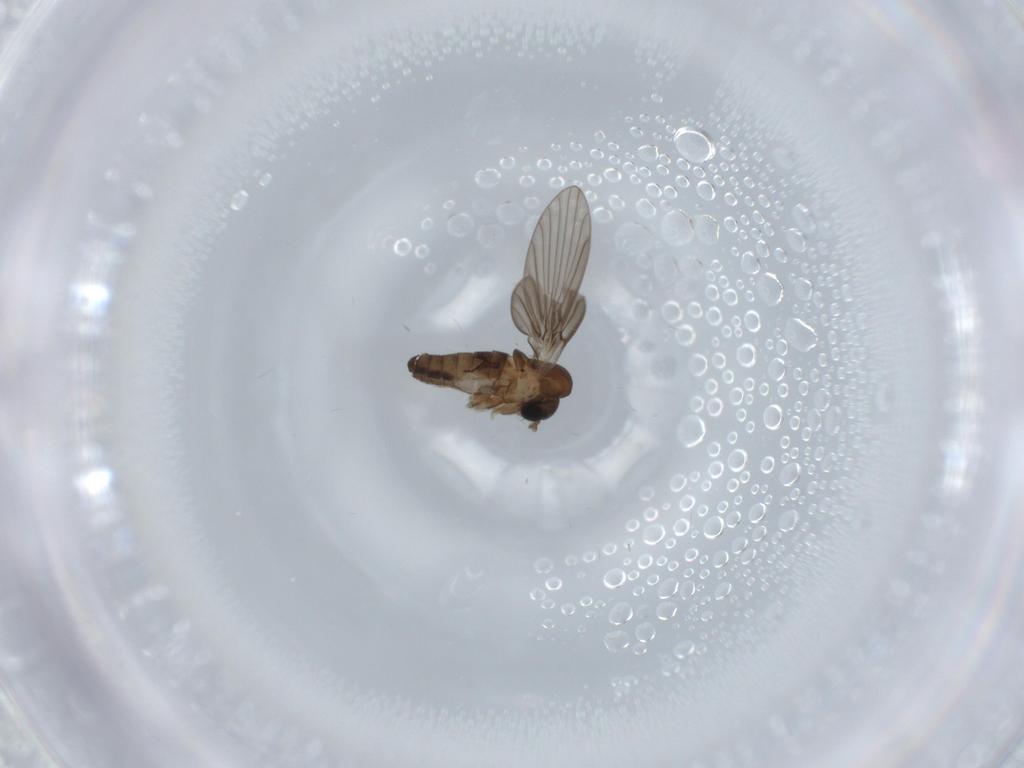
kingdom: Animalia
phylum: Arthropoda
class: Insecta
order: Diptera
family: Psychodidae
